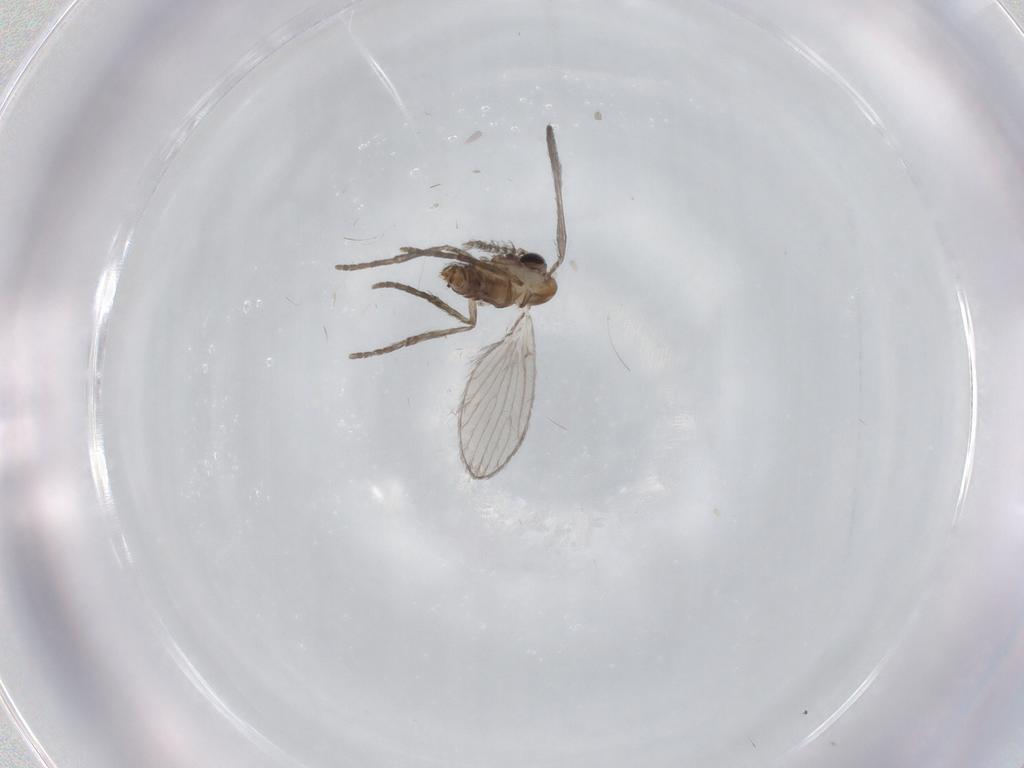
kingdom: Animalia
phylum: Arthropoda
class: Insecta
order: Diptera
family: Psychodidae
